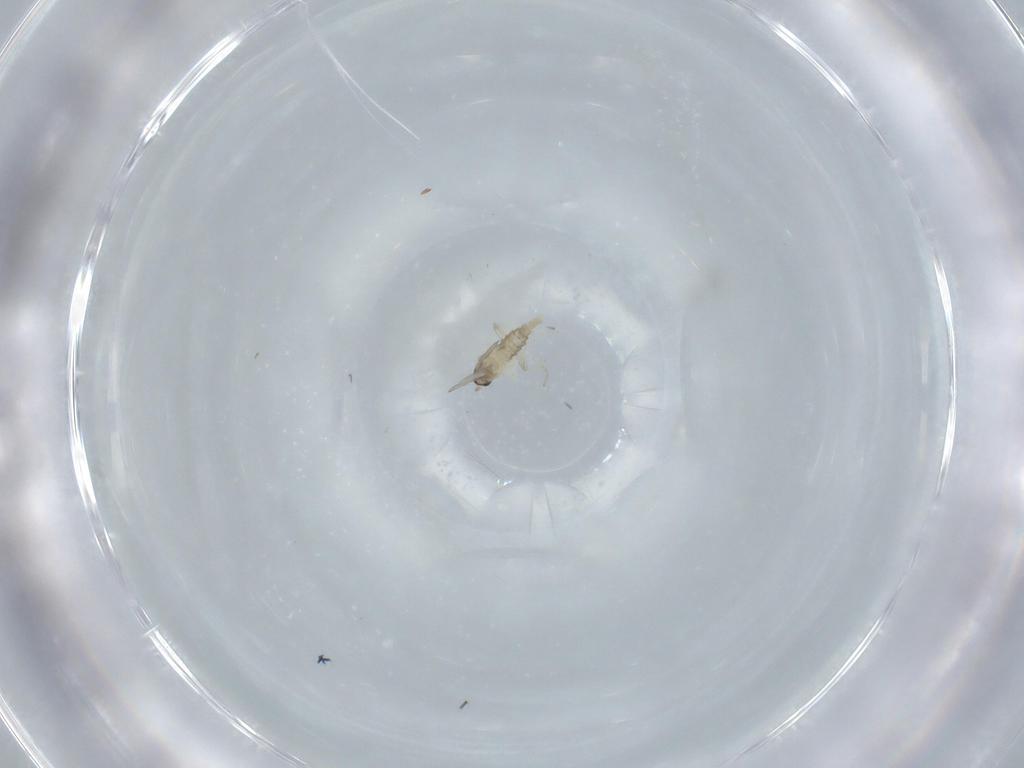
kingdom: Animalia
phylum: Arthropoda
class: Insecta
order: Diptera
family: Cecidomyiidae
